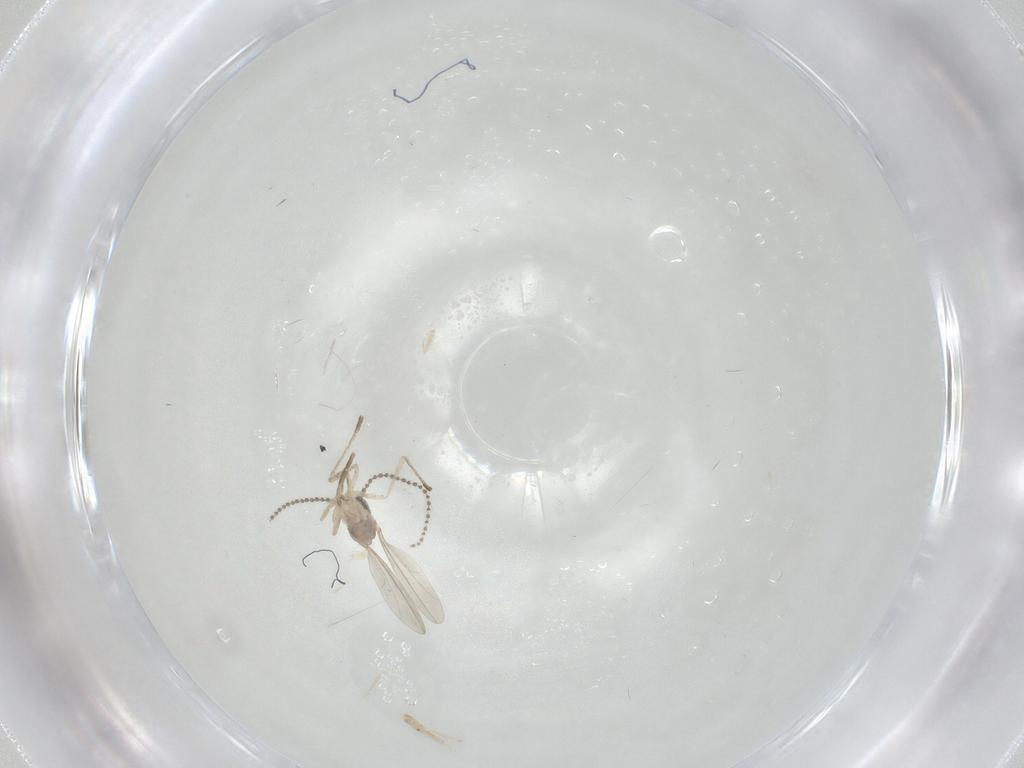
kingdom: Animalia
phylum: Arthropoda
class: Insecta
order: Diptera
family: Cecidomyiidae
